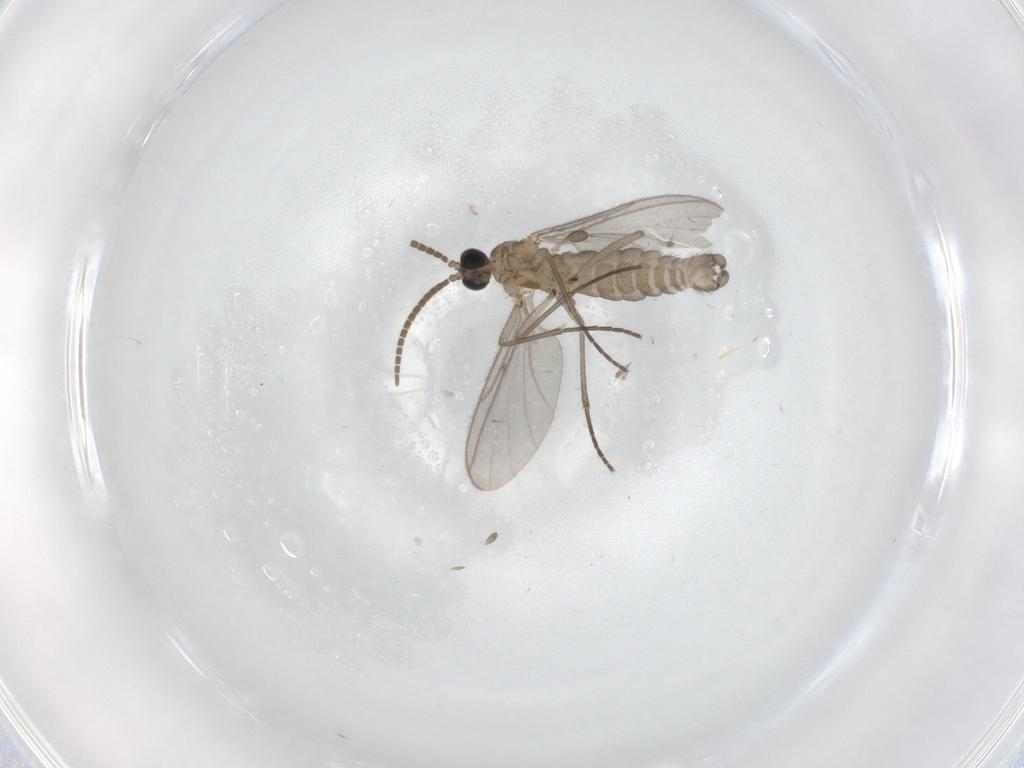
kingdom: Animalia
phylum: Arthropoda
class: Insecta
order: Diptera
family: Cecidomyiidae
